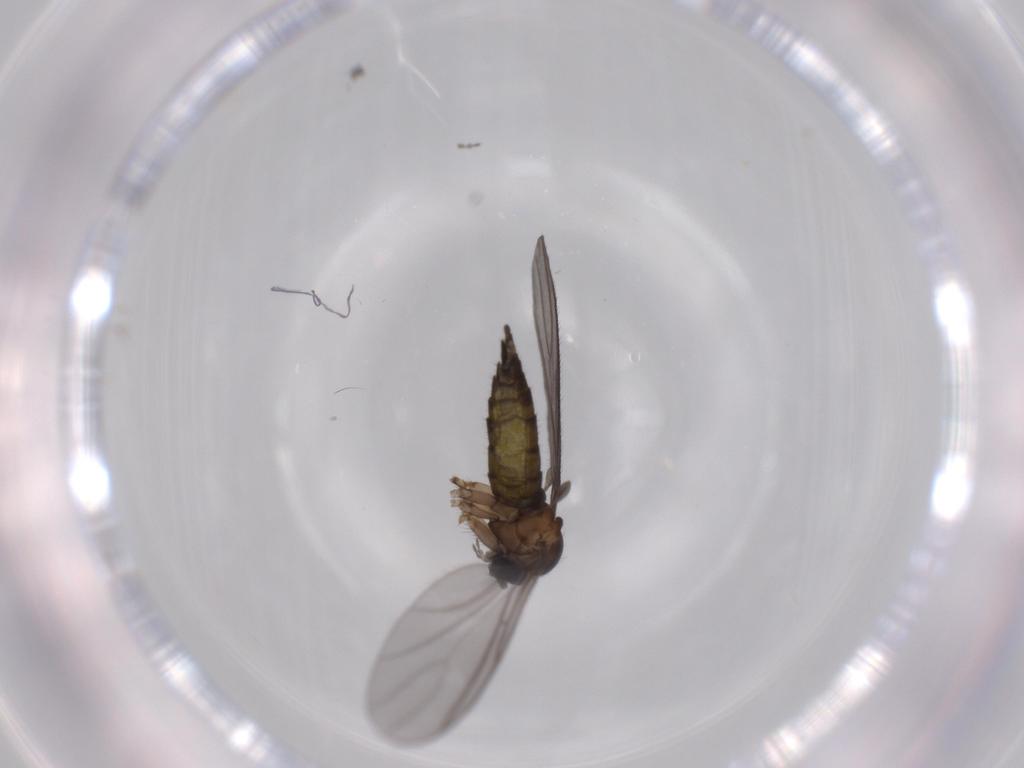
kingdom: Animalia
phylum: Arthropoda
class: Insecta
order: Diptera
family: Sciaridae
